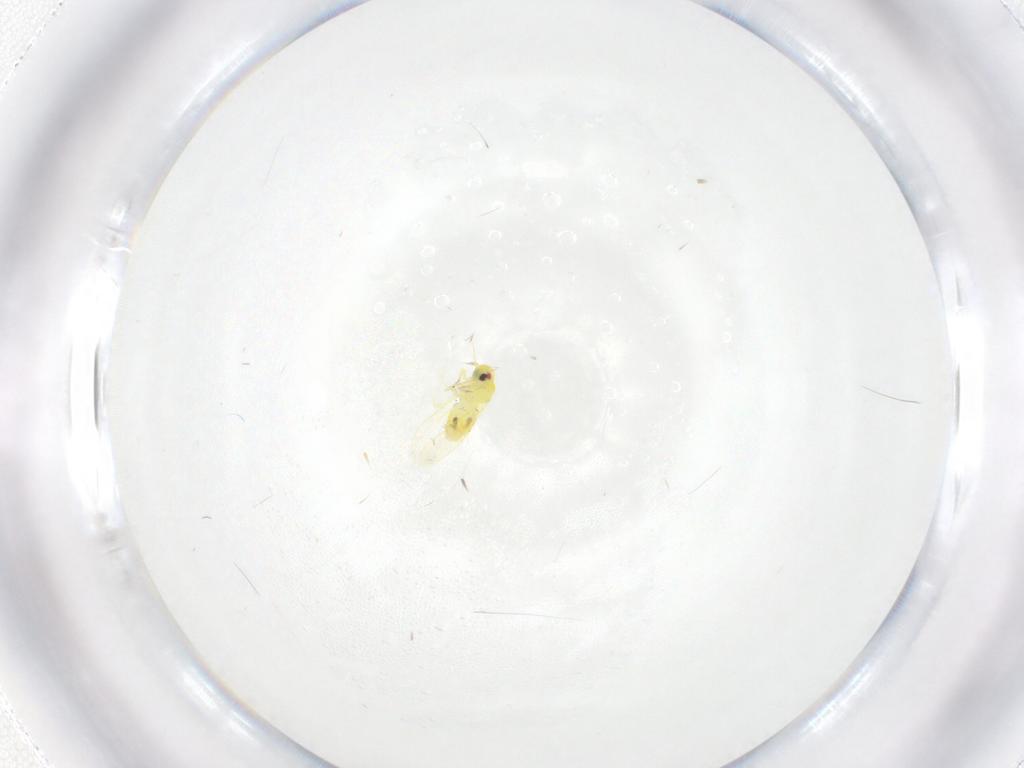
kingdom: Animalia
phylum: Arthropoda
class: Insecta
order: Hemiptera
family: Aleyrodidae
